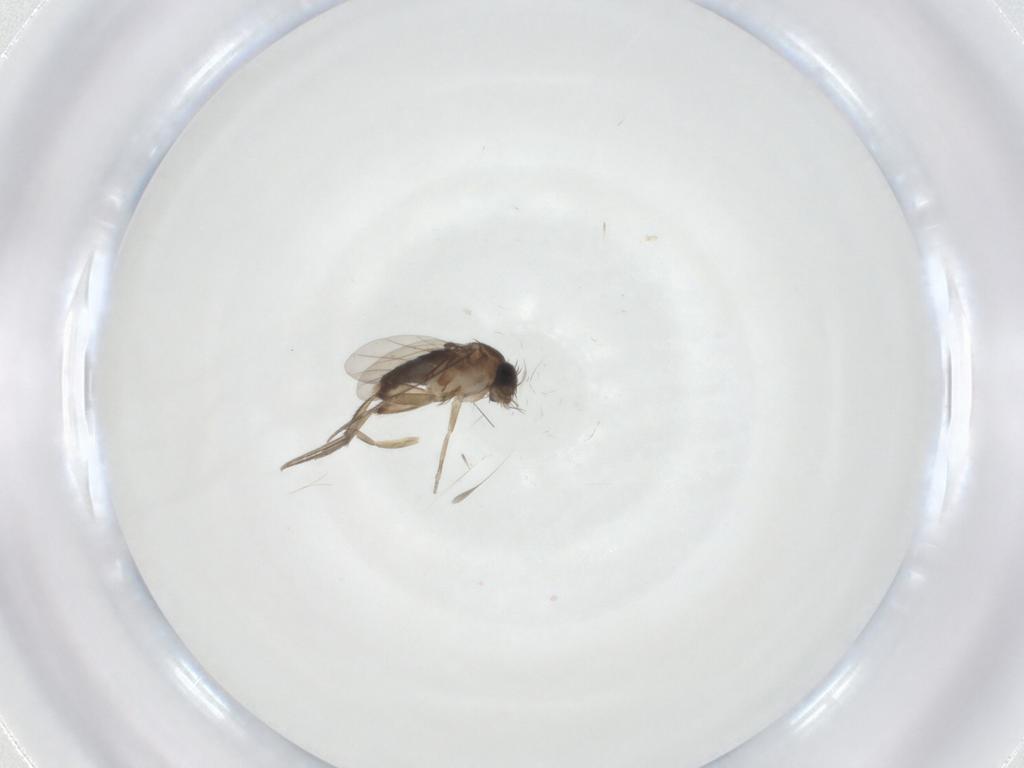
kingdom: Animalia
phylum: Arthropoda
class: Insecta
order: Diptera
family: Phoridae
